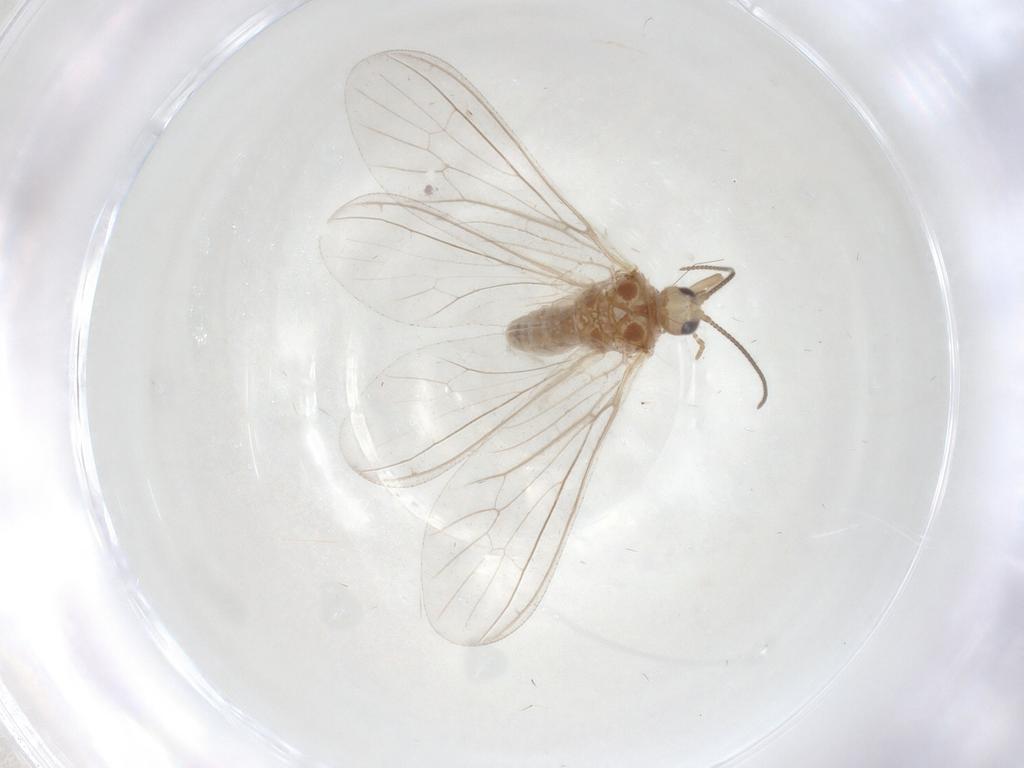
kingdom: Animalia
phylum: Arthropoda
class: Insecta
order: Neuroptera
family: Coniopterygidae
